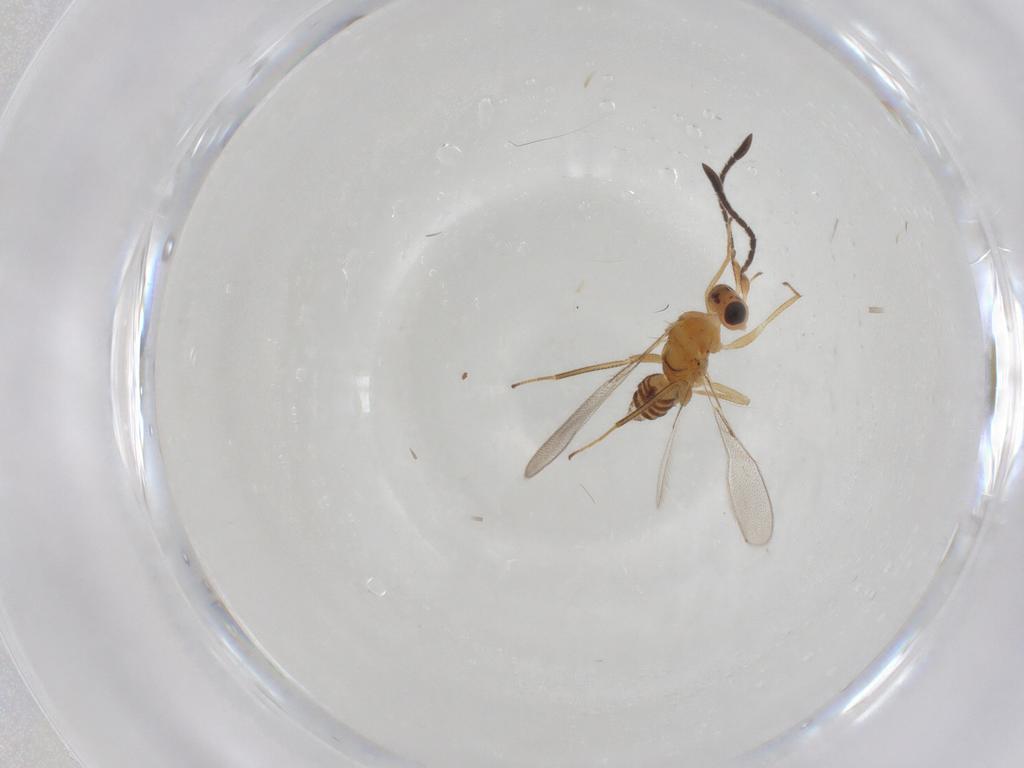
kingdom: Animalia
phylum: Arthropoda
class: Insecta
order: Hymenoptera
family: Mymaridae
